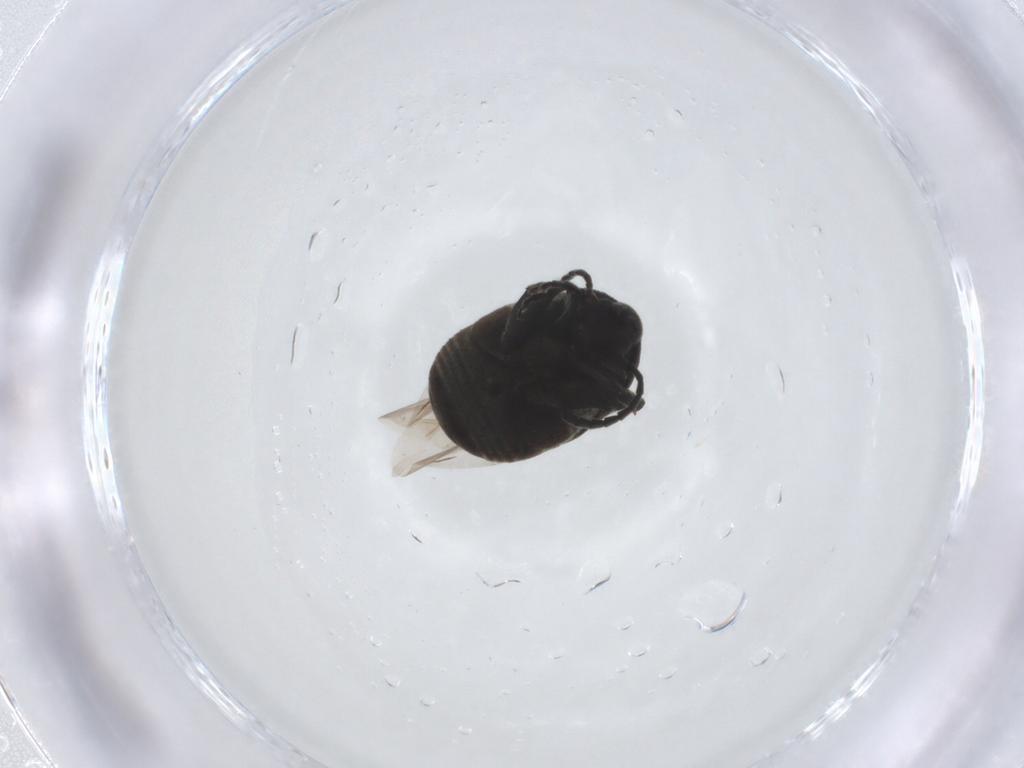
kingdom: Animalia
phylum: Arthropoda
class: Insecta
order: Coleoptera
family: Chrysomelidae
